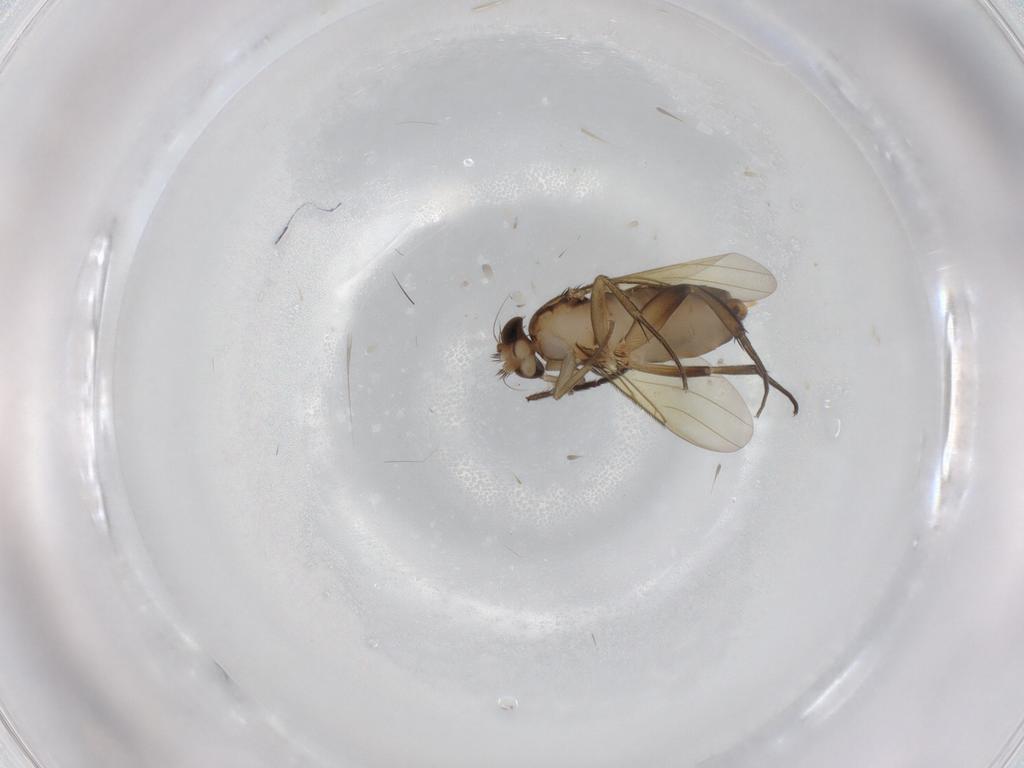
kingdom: Animalia
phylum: Arthropoda
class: Insecta
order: Diptera
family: Phoridae
